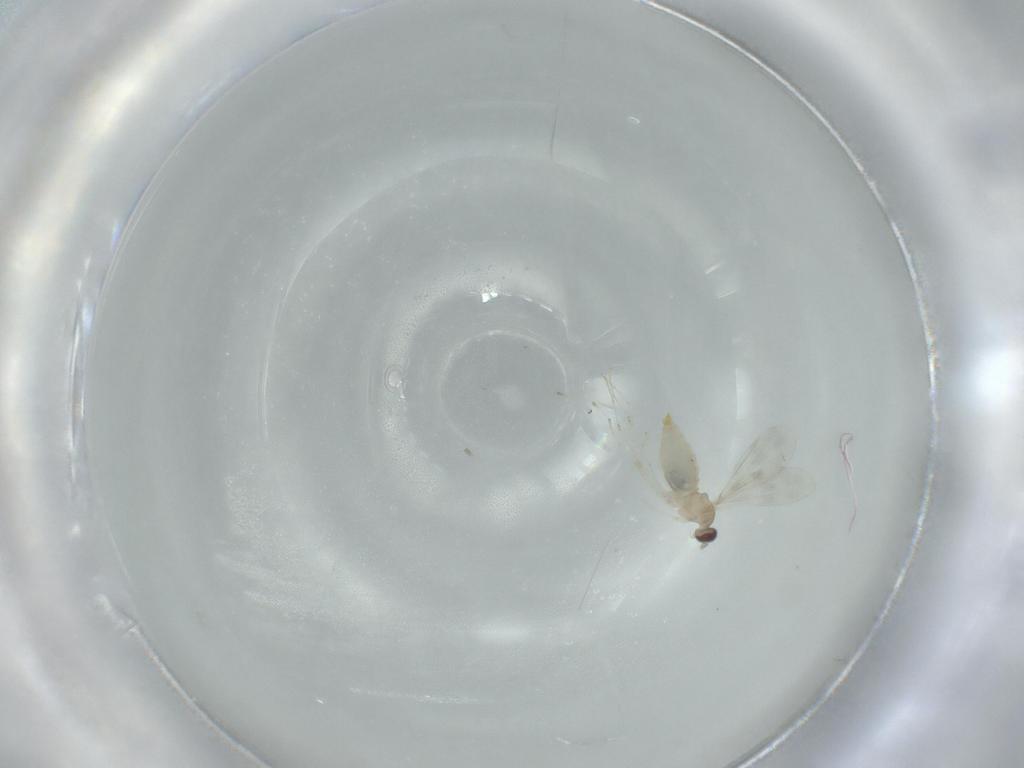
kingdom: Animalia
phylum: Arthropoda
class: Insecta
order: Diptera
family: Cecidomyiidae
